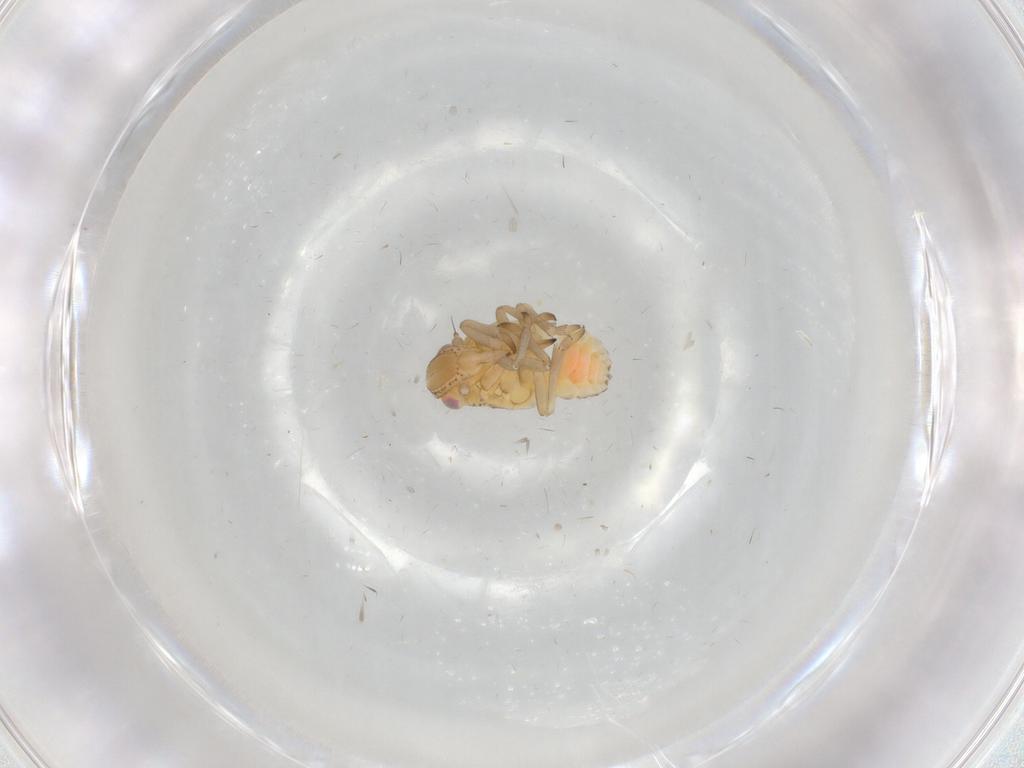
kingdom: Animalia
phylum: Arthropoda
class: Insecta
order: Hemiptera
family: Tropiduchidae
